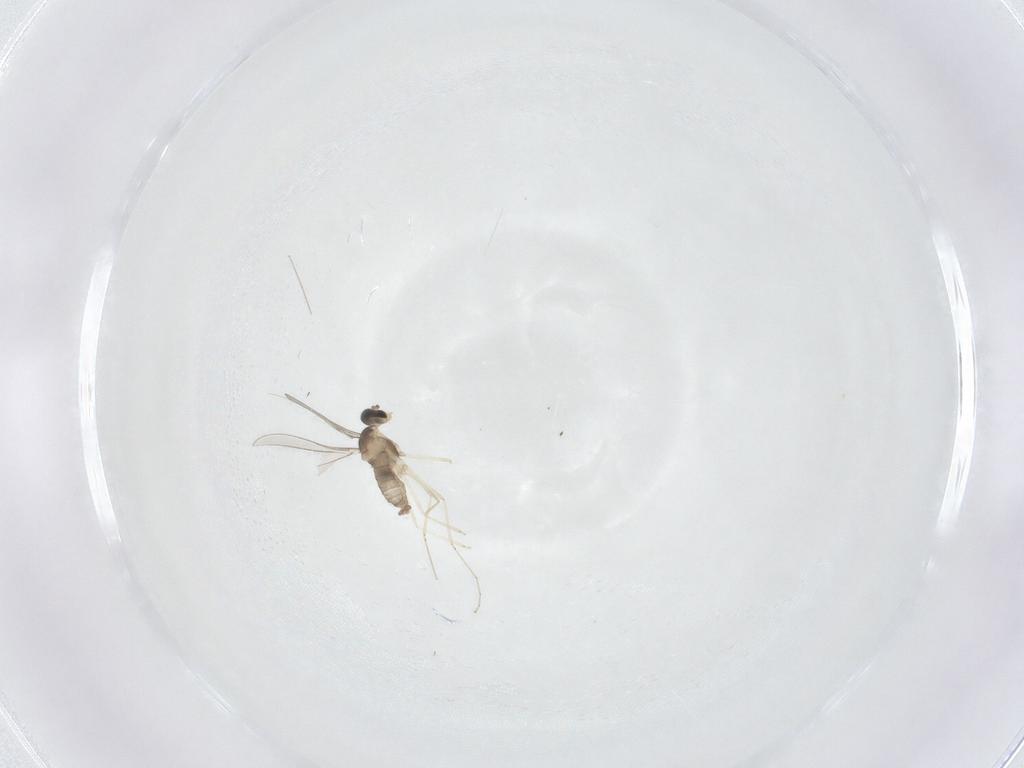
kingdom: Animalia
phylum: Arthropoda
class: Insecta
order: Diptera
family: Cecidomyiidae
